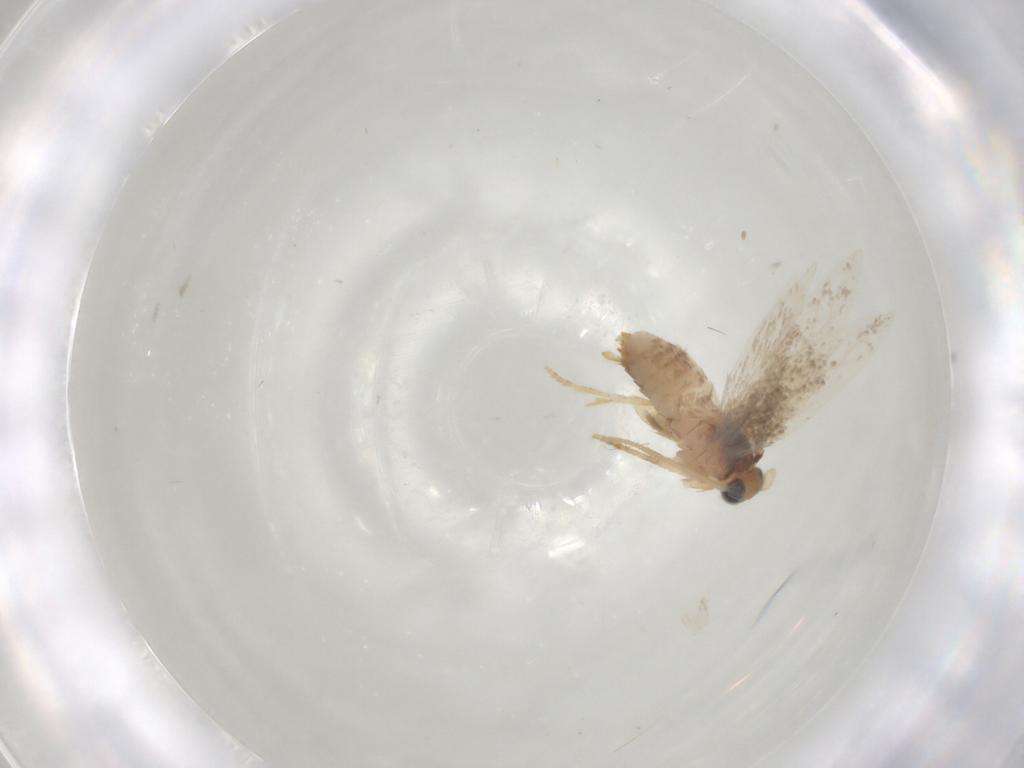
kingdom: Animalia
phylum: Arthropoda
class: Insecta
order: Lepidoptera
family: Nepticulidae
